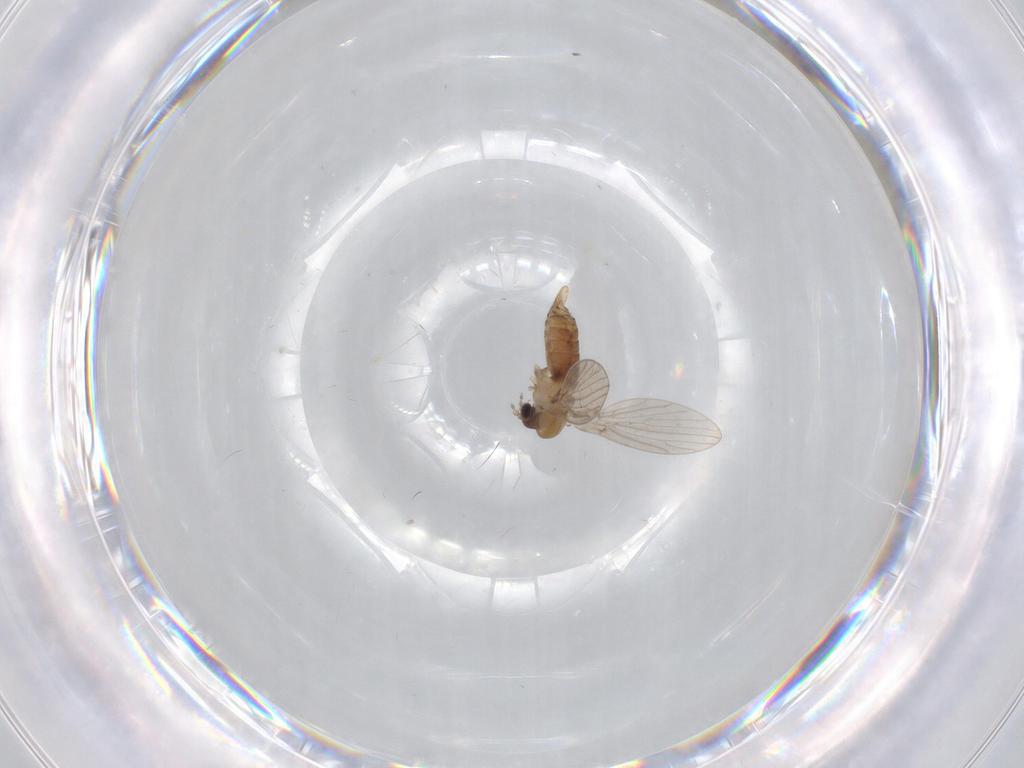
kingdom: Animalia
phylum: Arthropoda
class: Insecta
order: Diptera
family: Psychodidae
